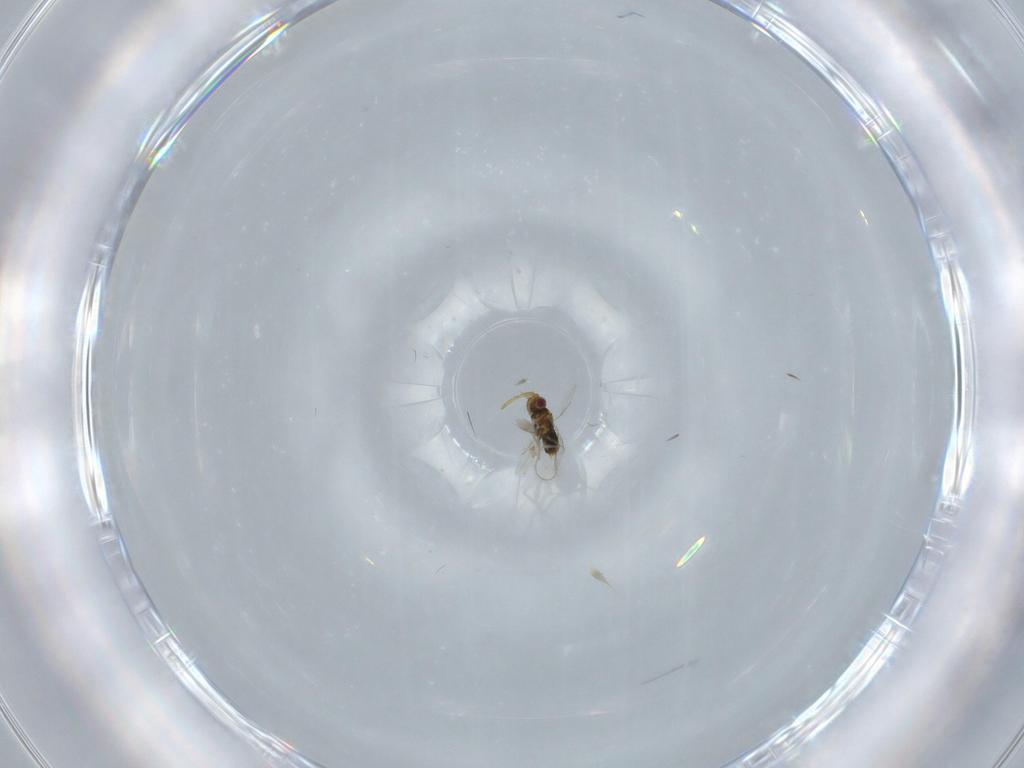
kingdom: Animalia
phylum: Arthropoda
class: Insecta
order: Hymenoptera
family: Aphelinidae
